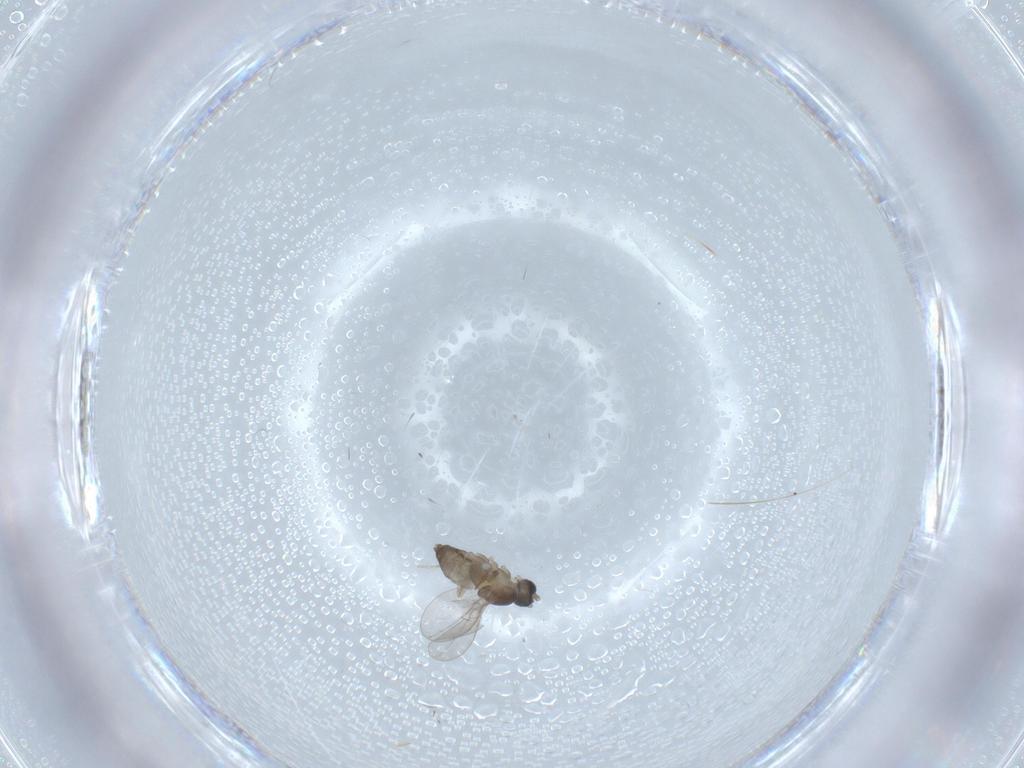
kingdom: Animalia
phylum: Arthropoda
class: Insecta
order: Diptera
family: Cecidomyiidae
